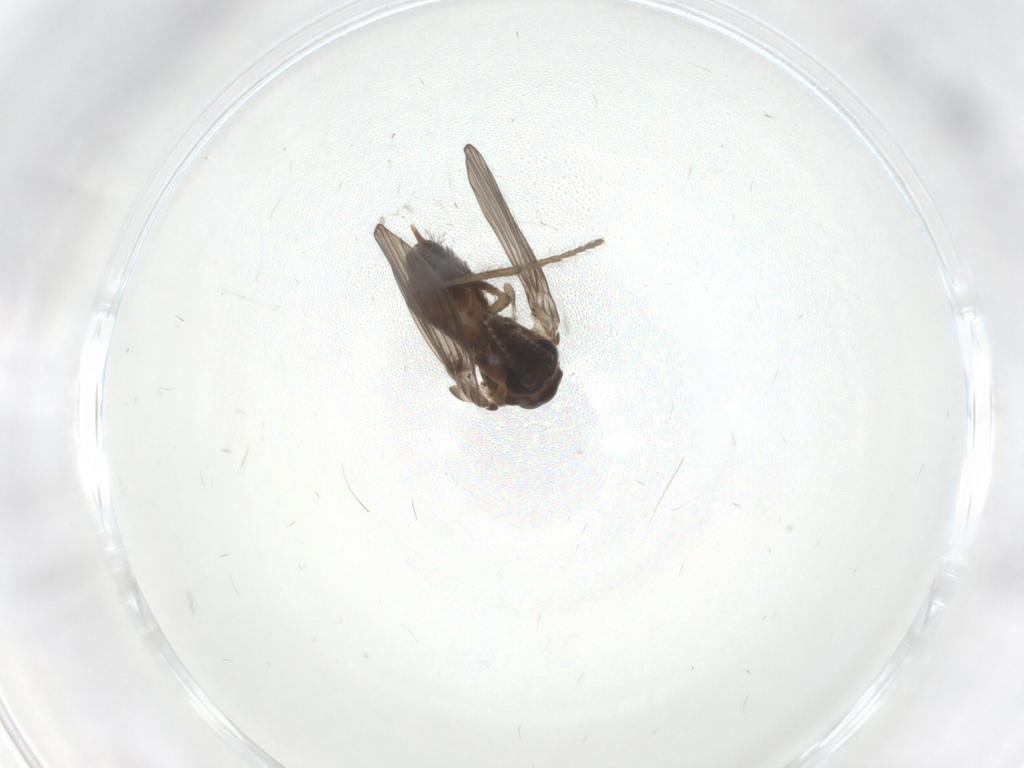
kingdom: Animalia
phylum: Arthropoda
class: Insecta
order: Diptera
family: Psychodidae
